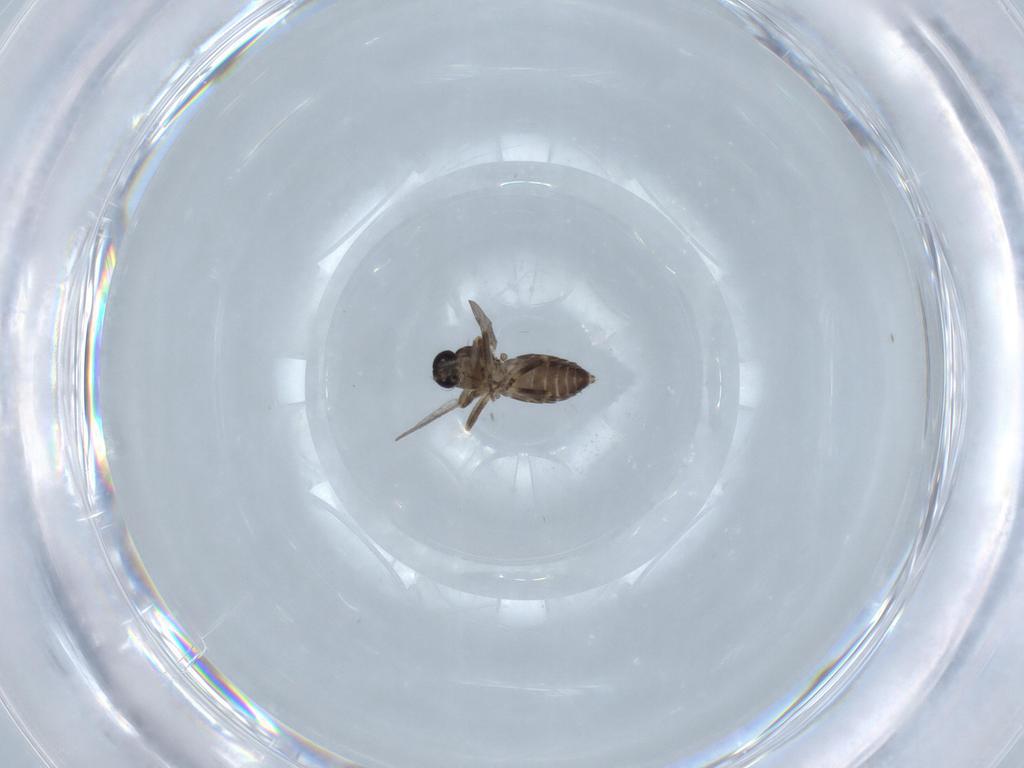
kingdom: Animalia
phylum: Arthropoda
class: Insecta
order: Diptera
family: Ceratopogonidae
